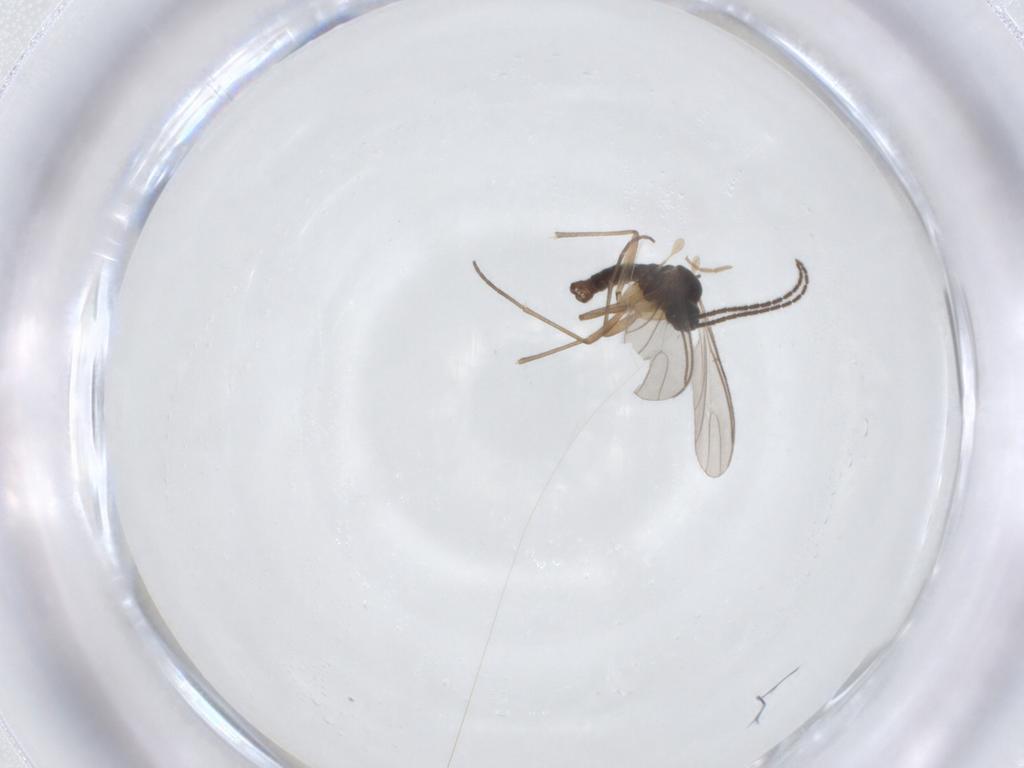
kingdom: Animalia
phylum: Arthropoda
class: Insecta
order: Diptera
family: Sciaridae
